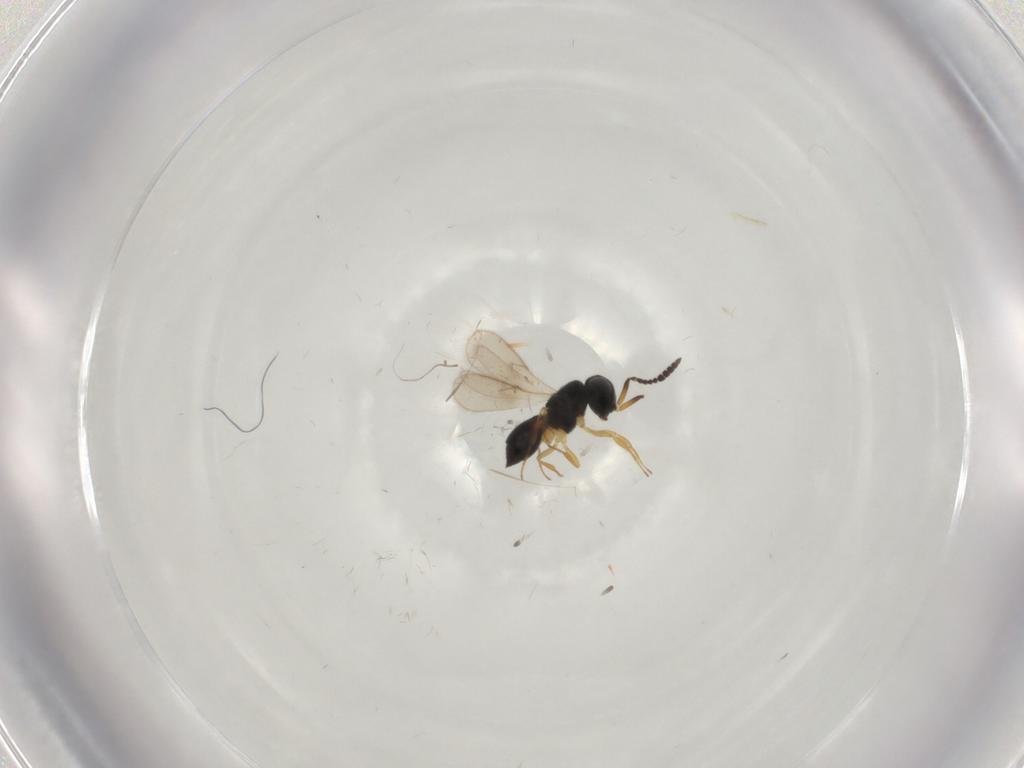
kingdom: Animalia
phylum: Arthropoda
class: Insecta
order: Hymenoptera
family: Scelionidae
